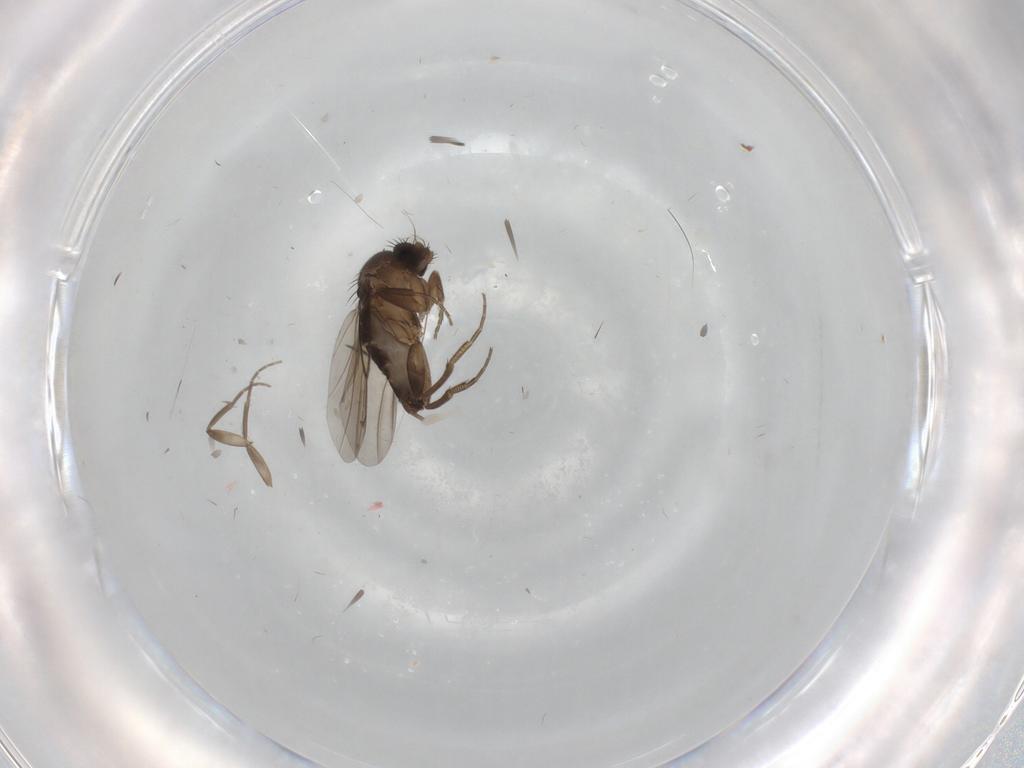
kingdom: Animalia
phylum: Arthropoda
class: Insecta
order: Diptera
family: Phoridae
